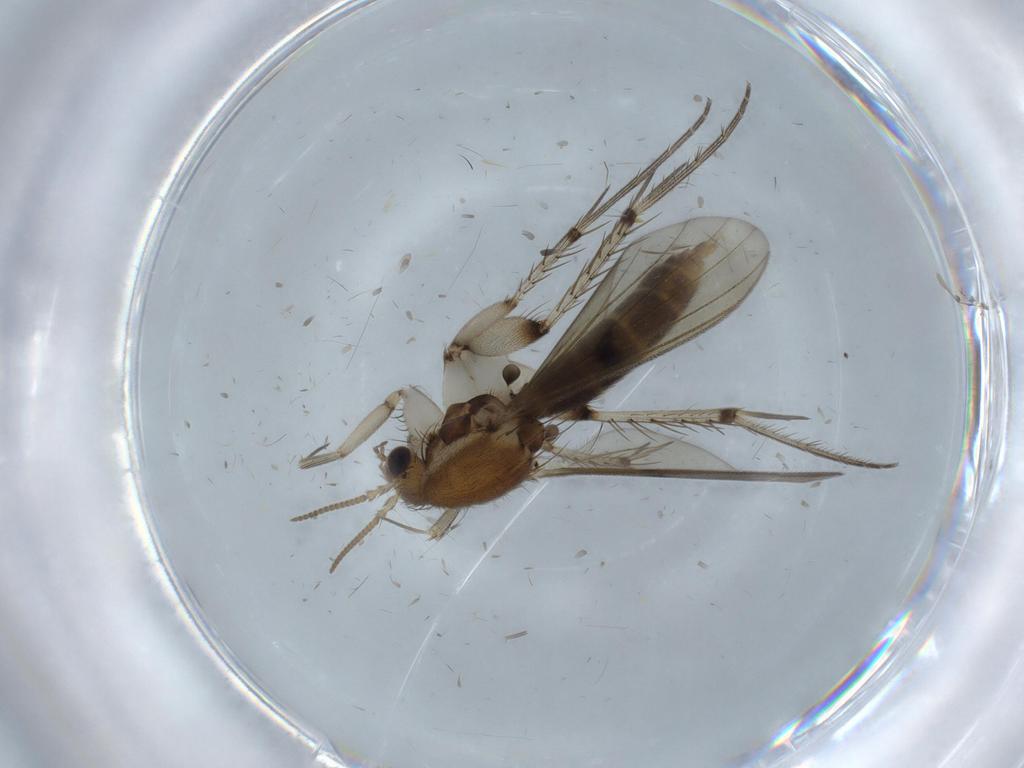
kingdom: Animalia
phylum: Arthropoda
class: Insecta
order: Diptera
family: Mycetophilidae
